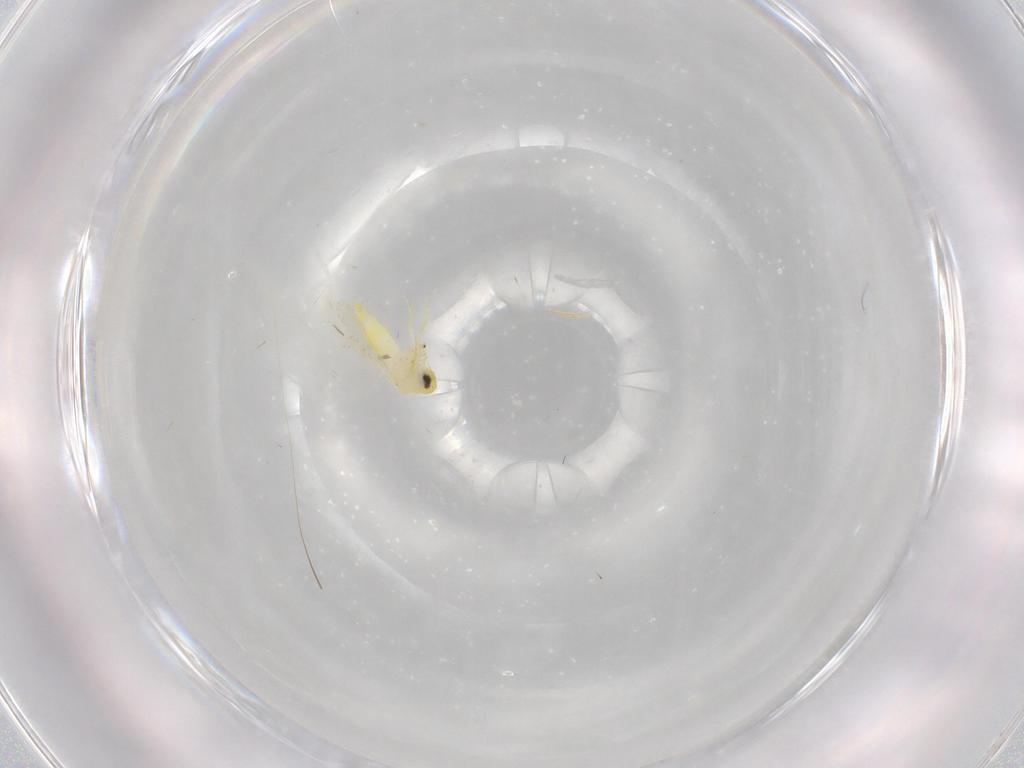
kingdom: Animalia
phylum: Arthropoda
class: Insecta
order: Hemiptera
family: Aleyrodidae
